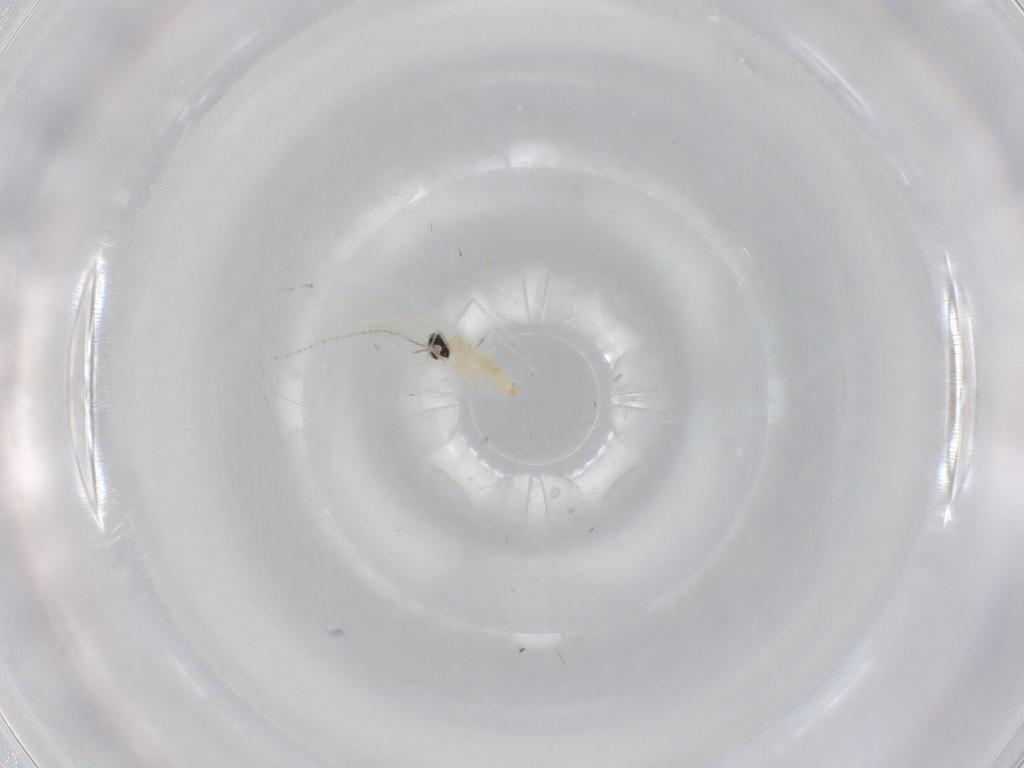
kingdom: Animalia
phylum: Arthropoda
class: Insecta
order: Diptera
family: Cecidomyiidae
